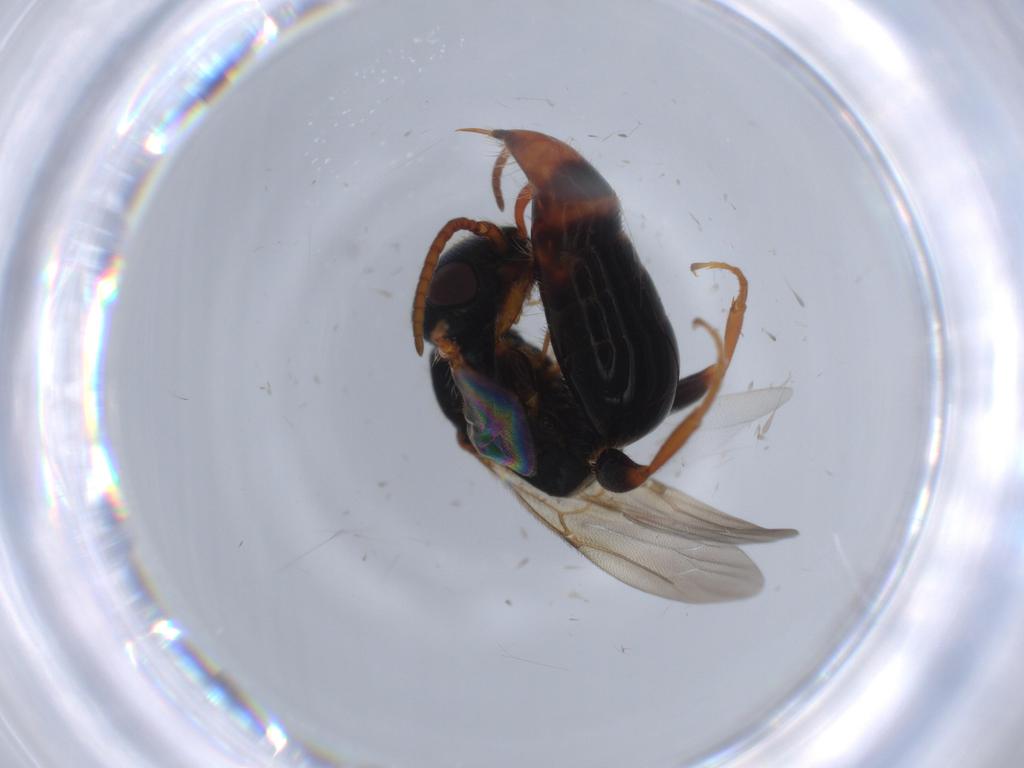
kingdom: Animalia
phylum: Arthropoda
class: Insecta
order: Hymenoptera
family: Bethylidae
